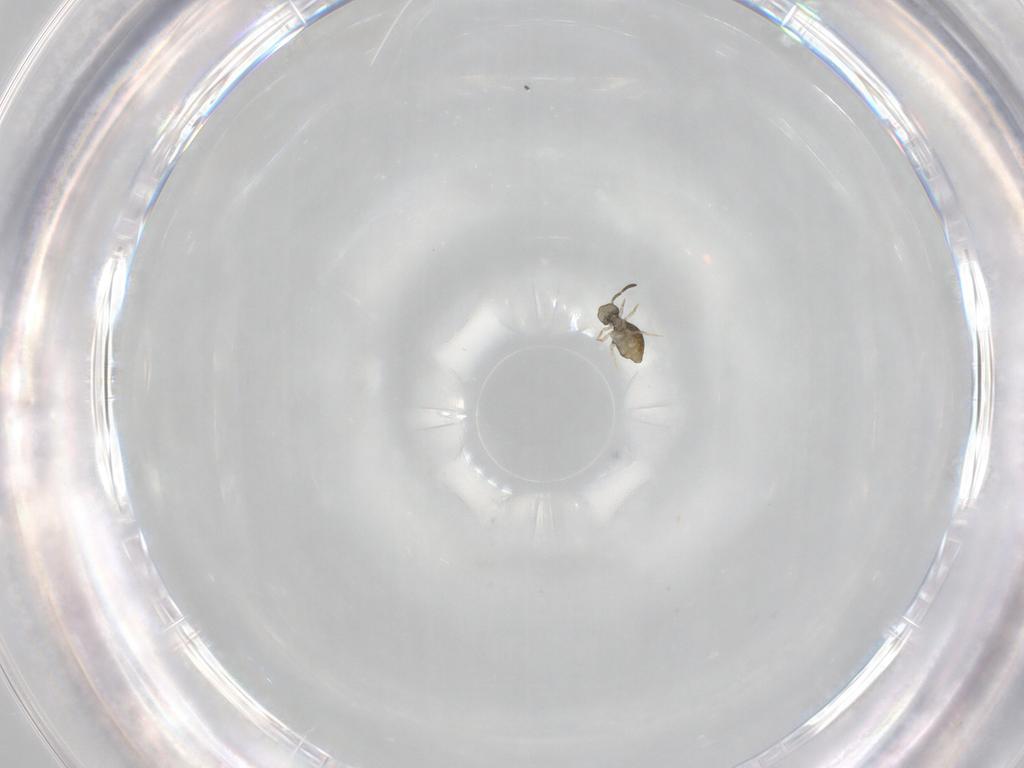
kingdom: Animalia
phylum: Arthropoda
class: Collembola
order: Symphypleona
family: Katiannidae
